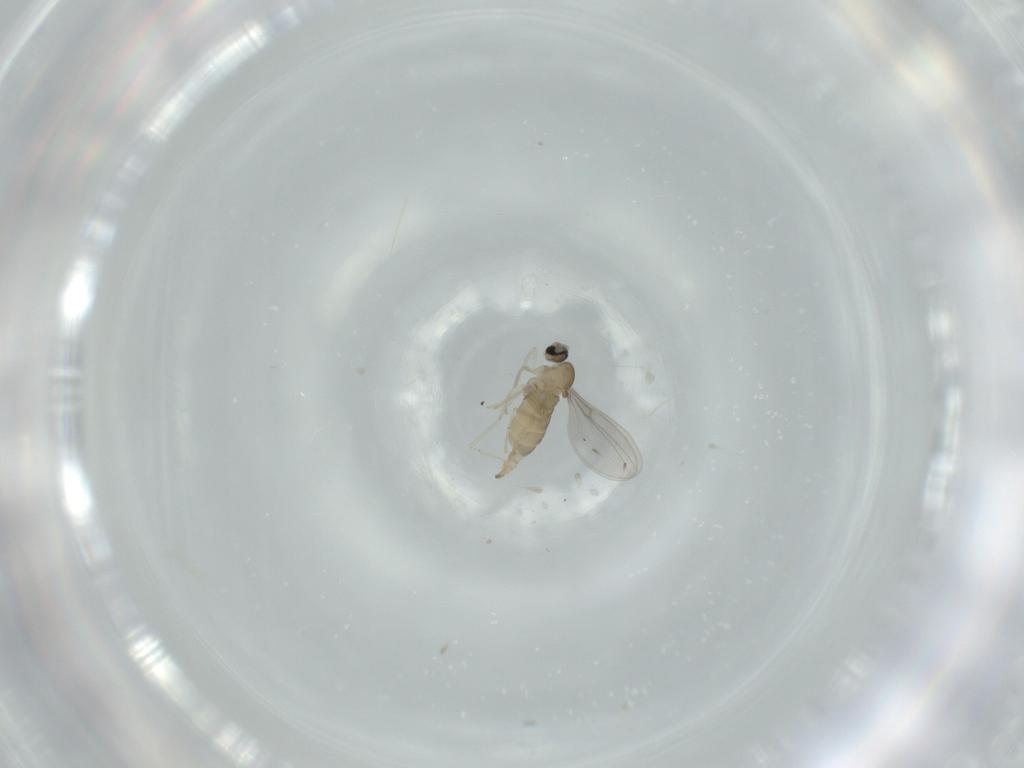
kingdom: Animalia
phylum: Arthropoda
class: Insecta
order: Diptera
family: Cecidomyiidae
